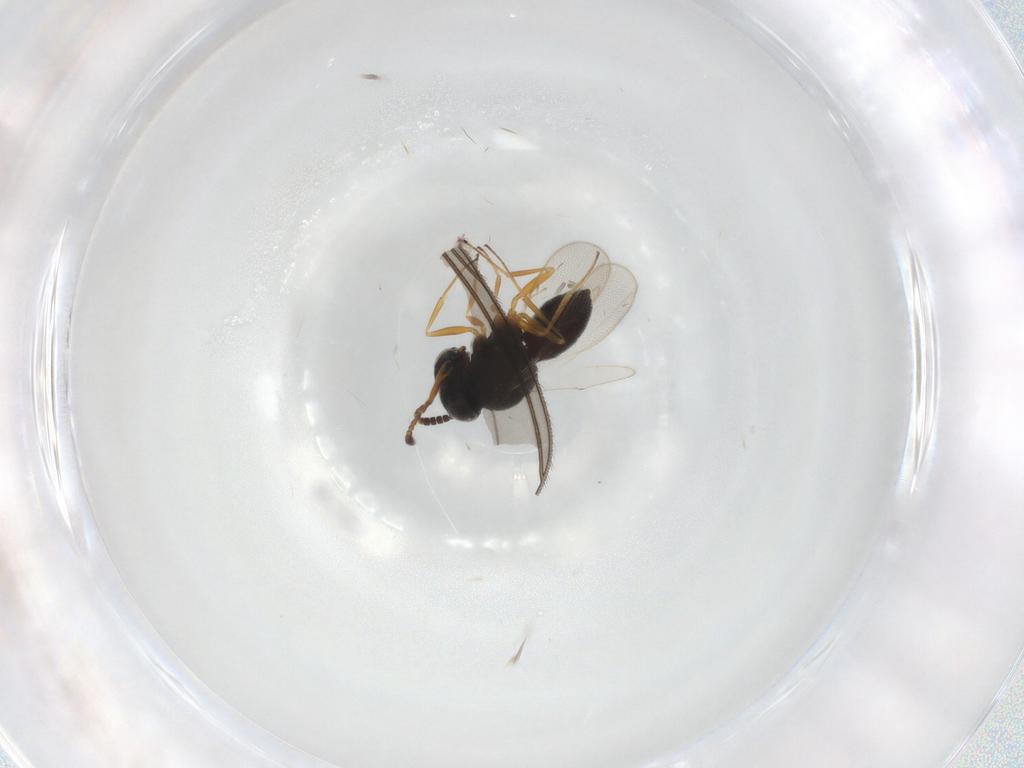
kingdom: Animalia
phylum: Arthropoda
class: Insecta
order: Hymenoptera
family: Scelionidae
